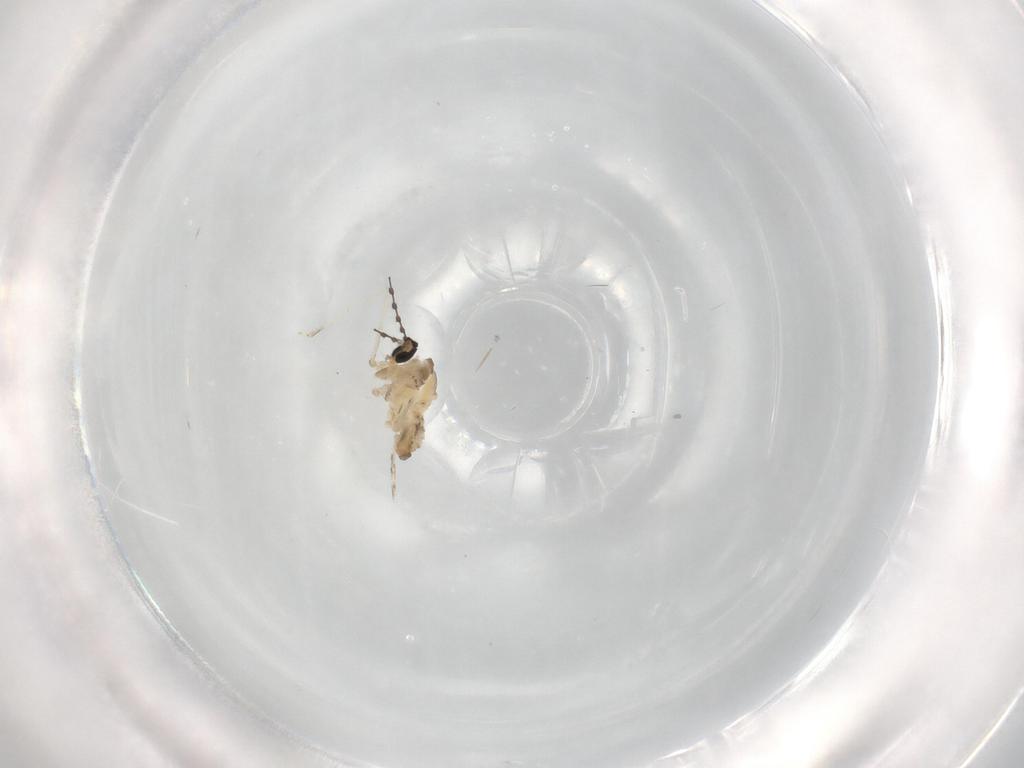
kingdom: Animalia
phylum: Arthropoda
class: Insecta
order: Diptera
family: Cecidomyiidae
